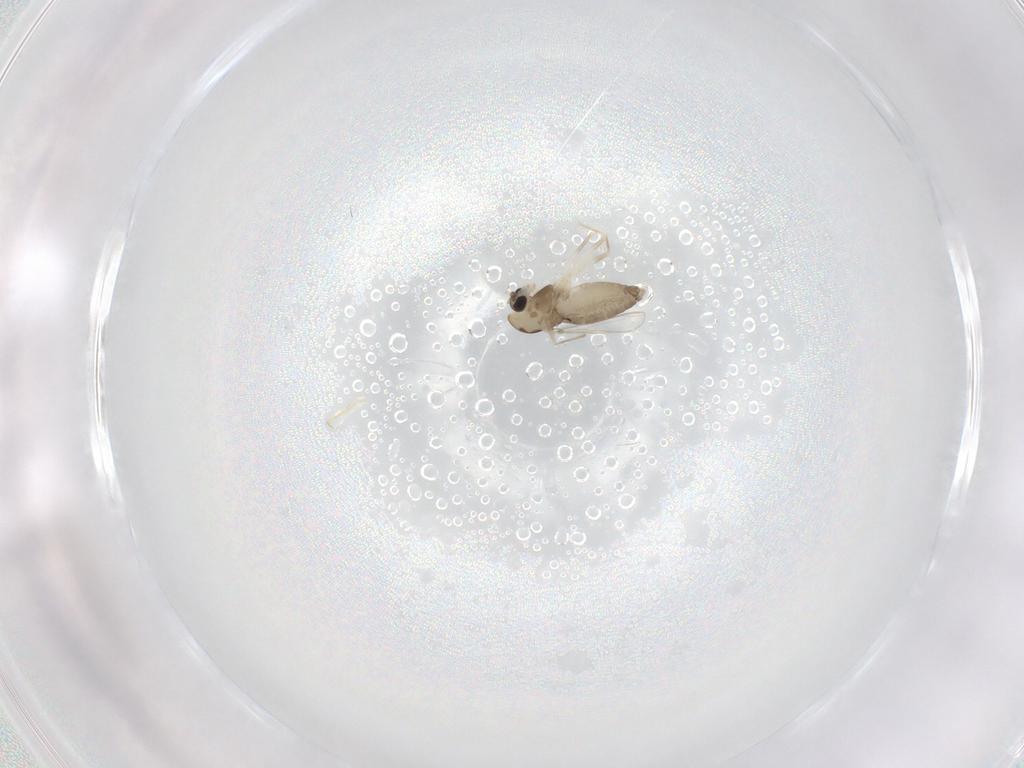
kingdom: Animalia
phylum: Arthropoda
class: Insecta
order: Diptera
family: Chironomidae
